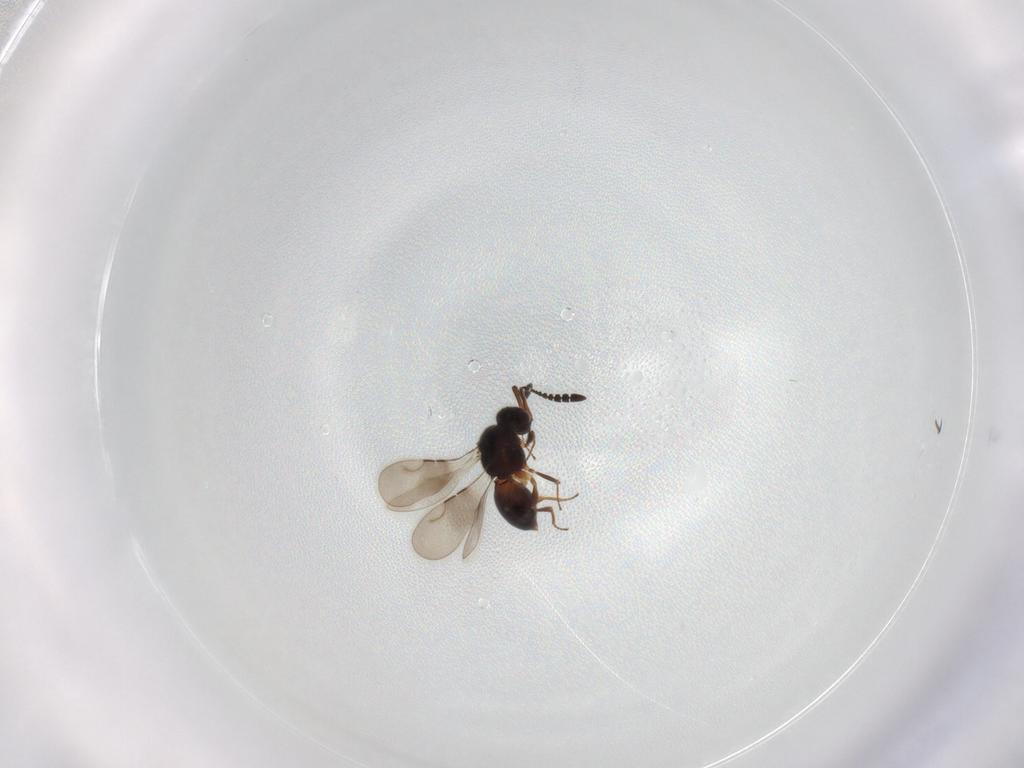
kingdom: Animalia
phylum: Arthropoda
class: Insecta
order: Hymenoptera
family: Ceraphronidae
